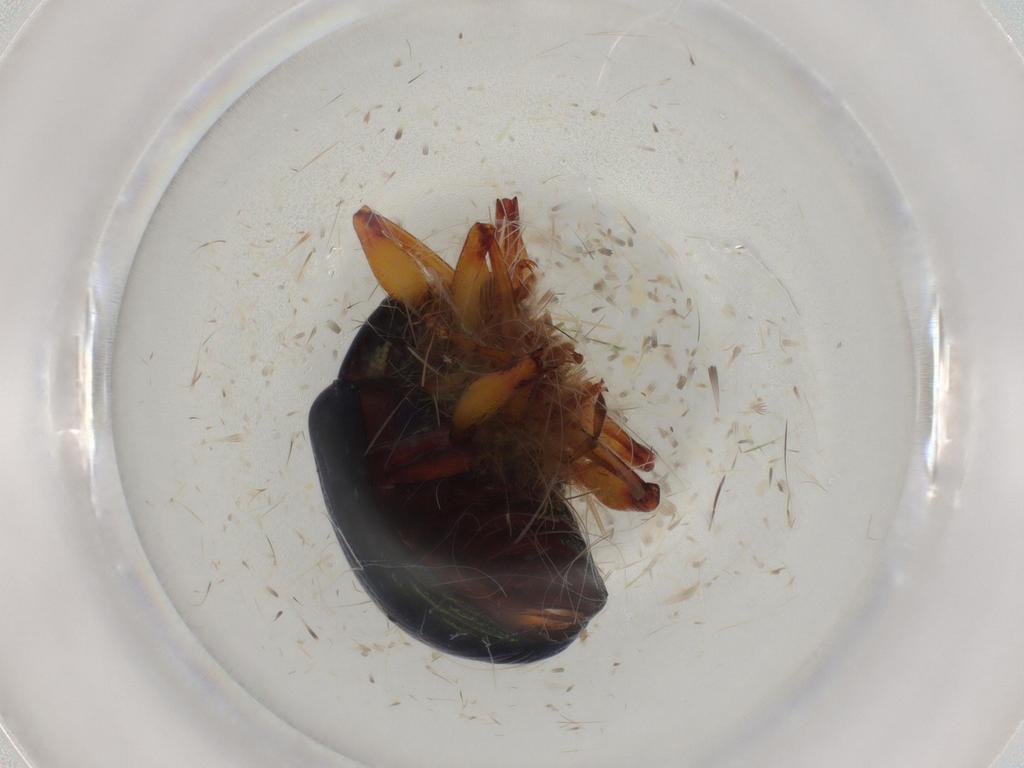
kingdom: Animalia
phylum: Arthropoda
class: Insecta
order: Coleoptera
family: Chrysomelidae
